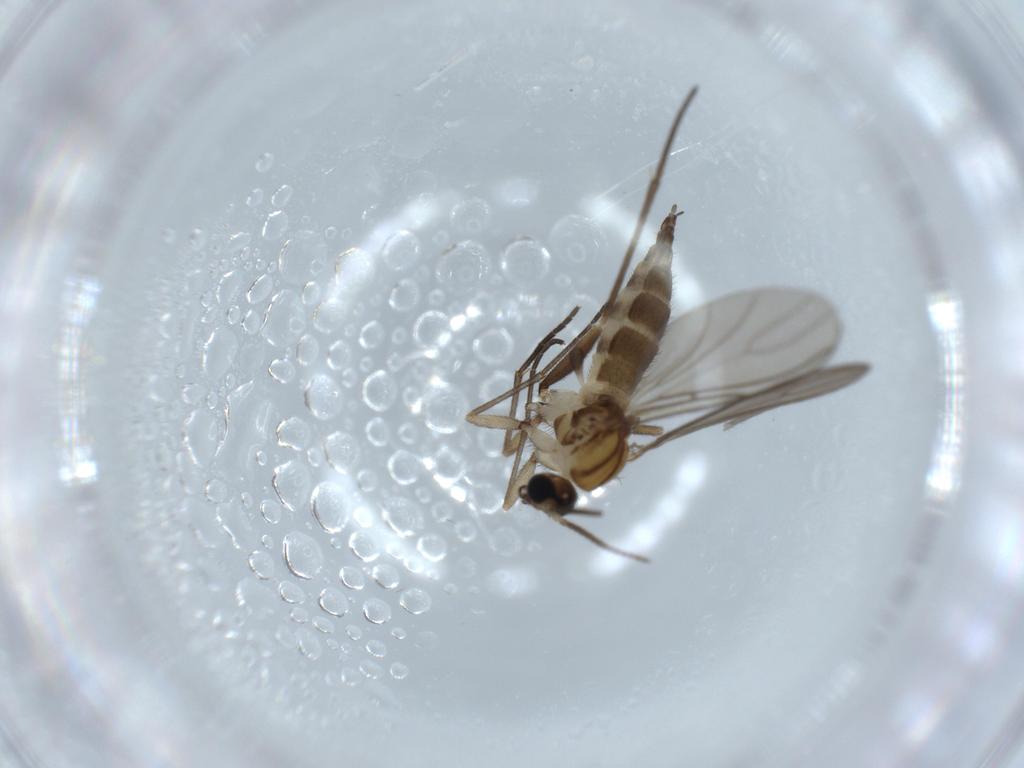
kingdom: Animalia
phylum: Arthropoda
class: Insecta
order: Diptera
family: Sciaridae
